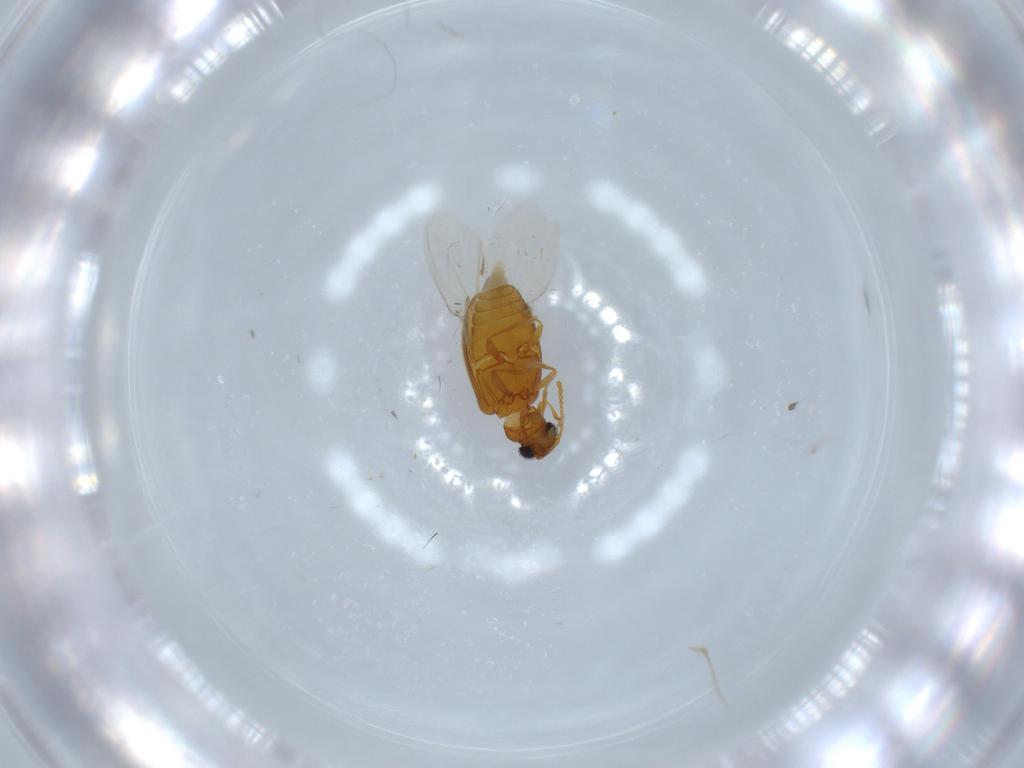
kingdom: Animalia
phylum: Arthropoda
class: Insecta
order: Coleoptera
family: Aderidae
